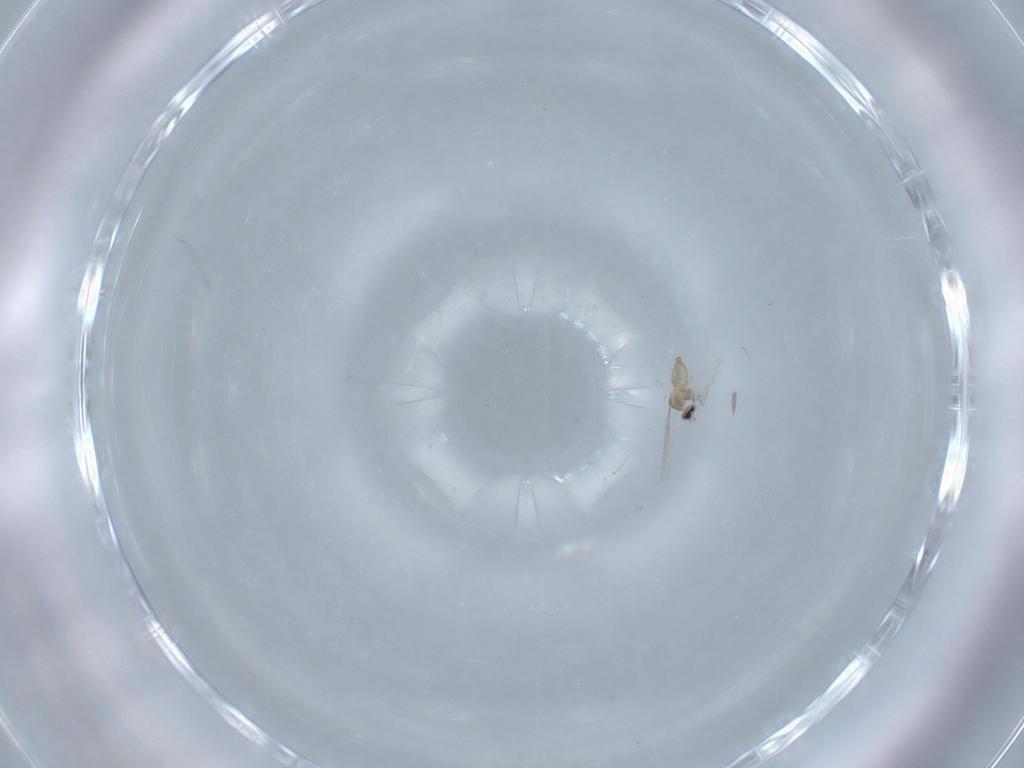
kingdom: Animalia
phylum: Arthropoda
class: Insecta
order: Diptera
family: Cecidomyiidae
